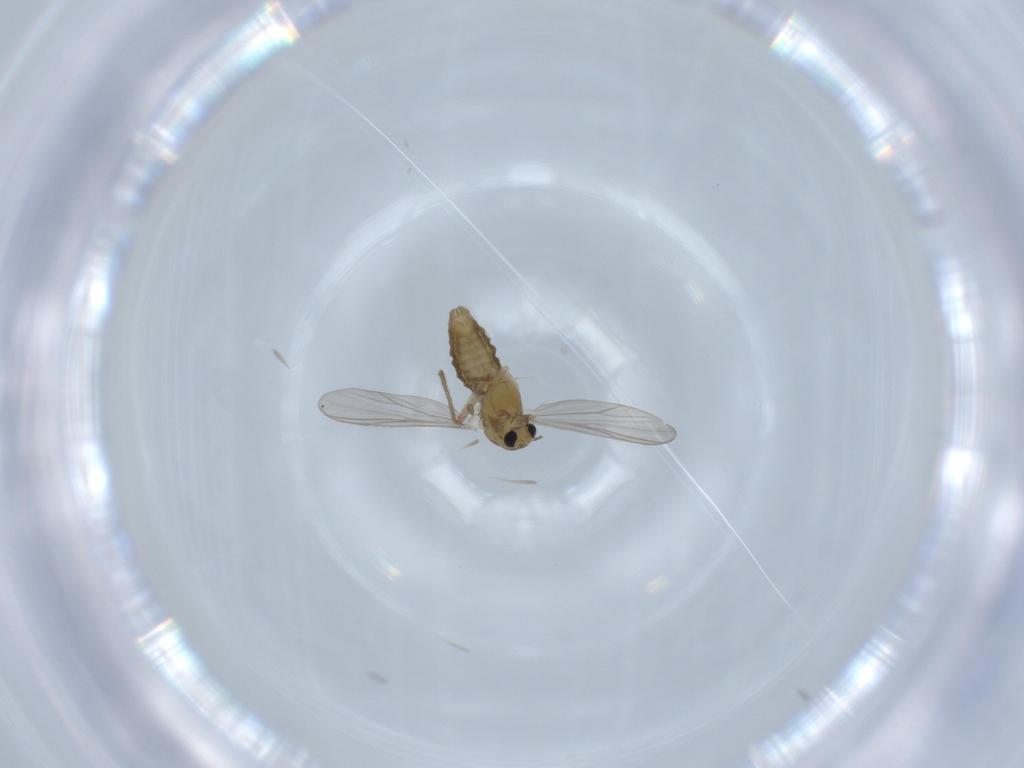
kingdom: Animalia
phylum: Arthropoda
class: Insecta
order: Diptera
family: Chironomidae
